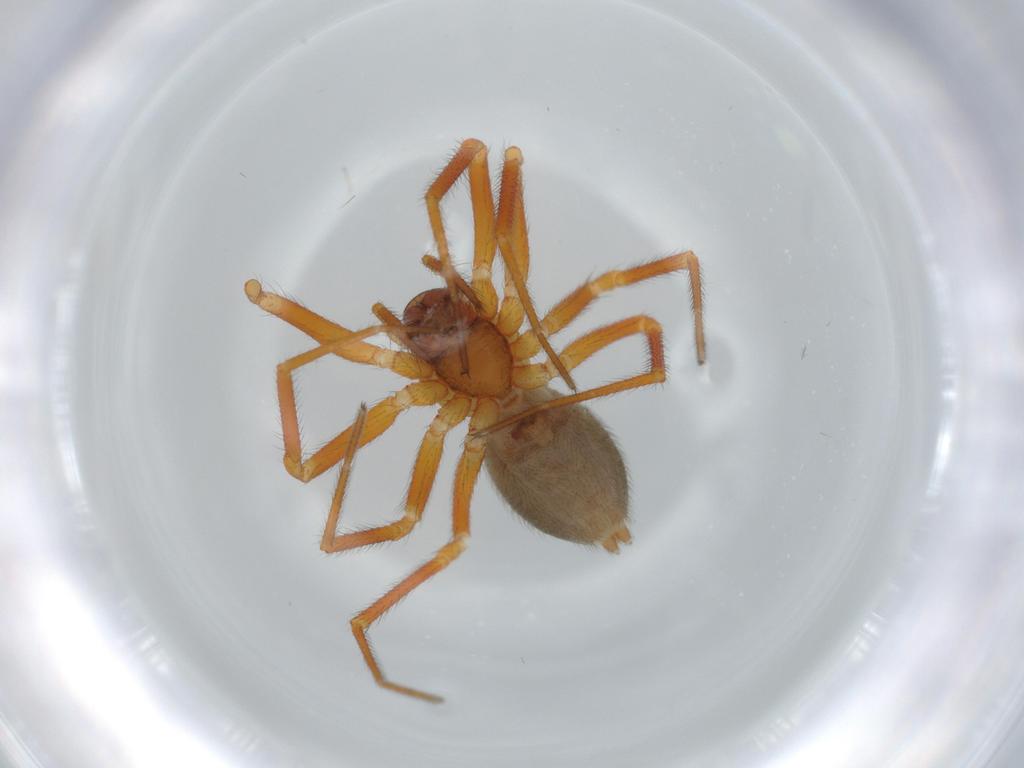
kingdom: Animalia
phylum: Arthropoda
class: Arachnida
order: Araneae
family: Linyphiidae
